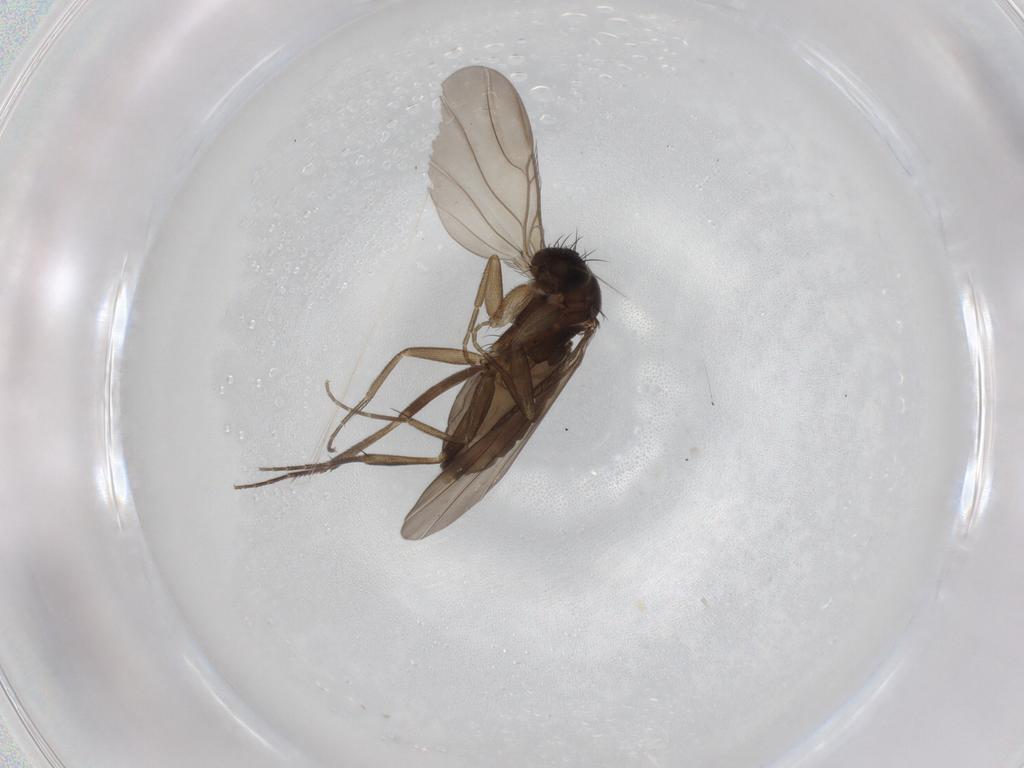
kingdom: Animalia
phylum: Arthropoda
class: Insecta
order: Diptera
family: Phoridae
